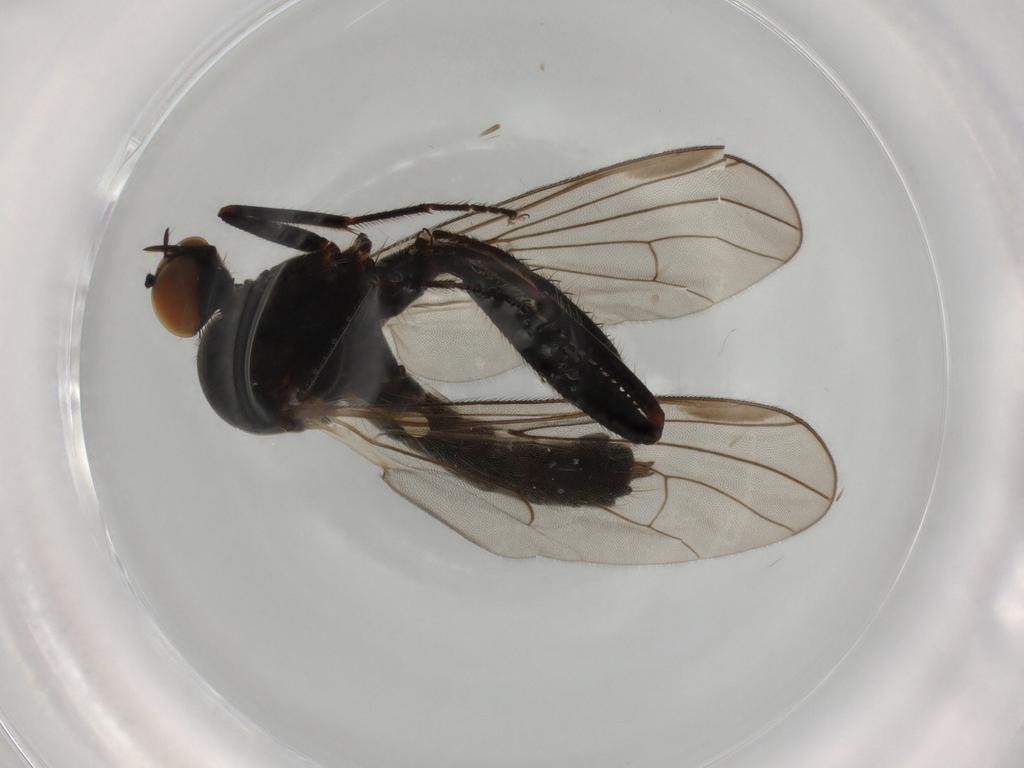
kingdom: Animalia
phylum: Arthropoda
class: Insecta
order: Diptera
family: Hybotidae
